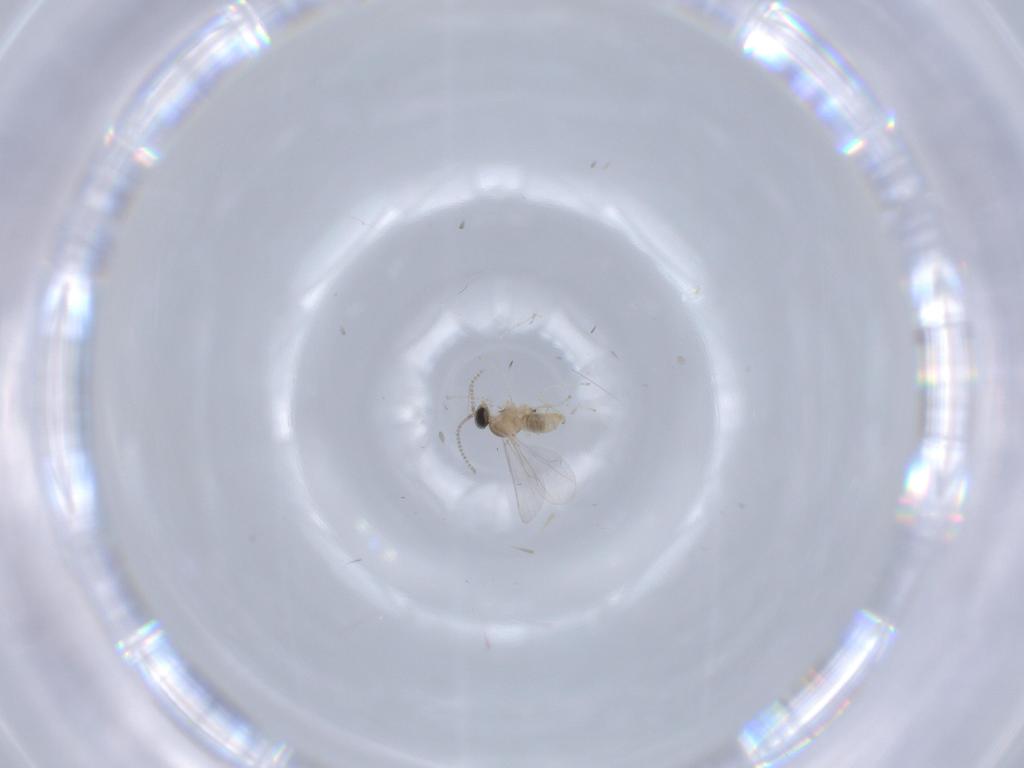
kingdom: Animalia
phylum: Arthropoda
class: Insecta
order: Diptera
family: Cecidomyiidae
